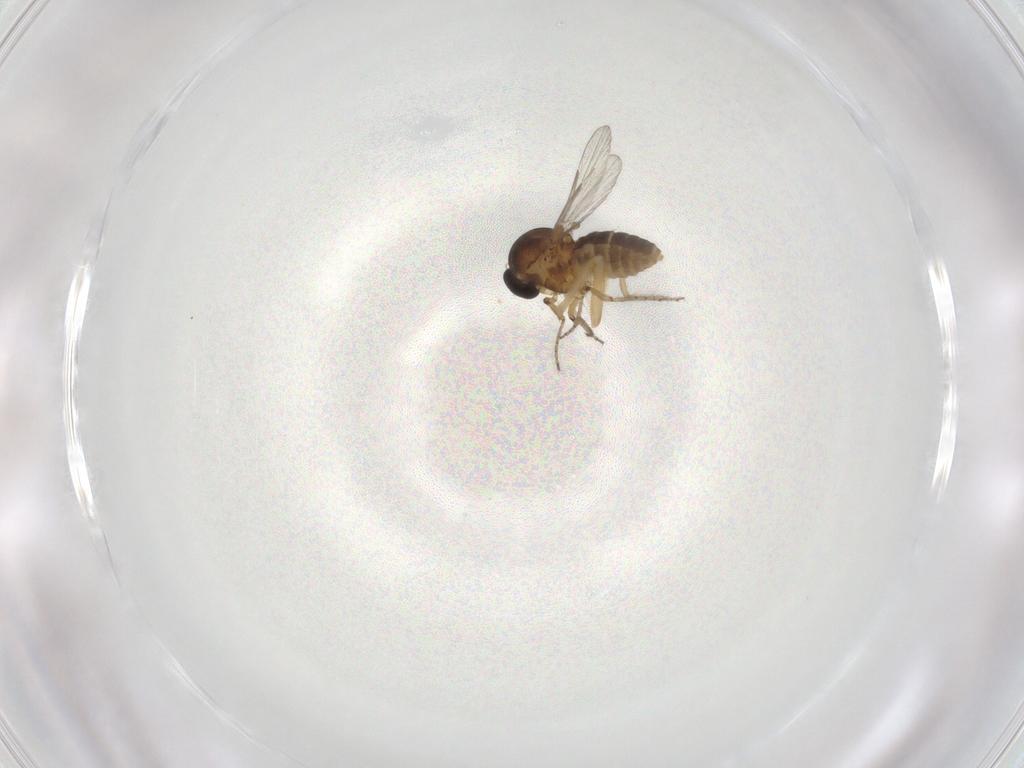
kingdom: Animalia
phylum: Arthropoda
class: Insecta
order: Diptera
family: Ceratopogonidae
